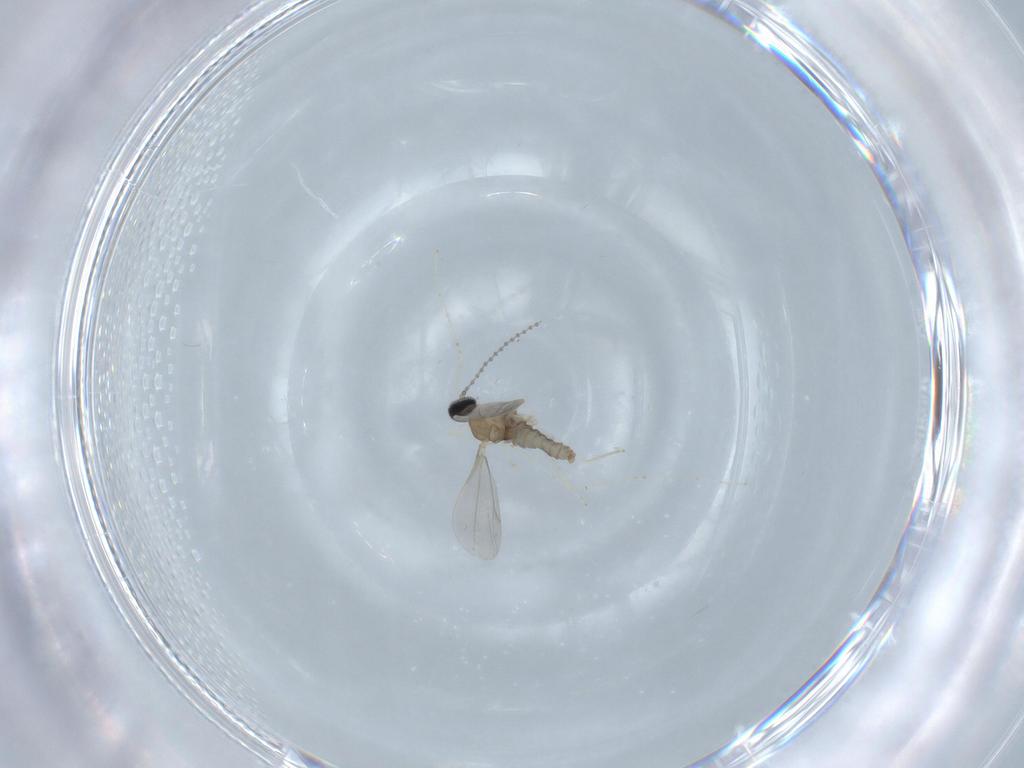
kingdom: Animalia
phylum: Arthropoda
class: Insecta
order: Diptera
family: Cecidomyiidae
